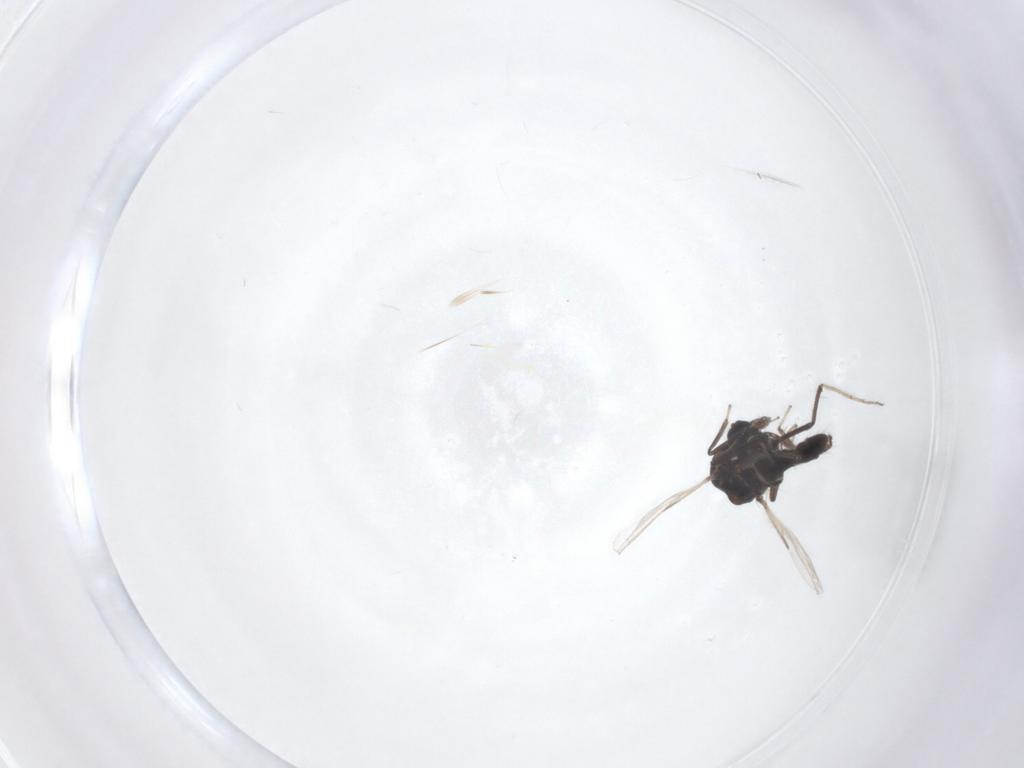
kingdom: Animalia
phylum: Arthropoda
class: Insecta
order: Diptera
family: Ceratopogonidae
